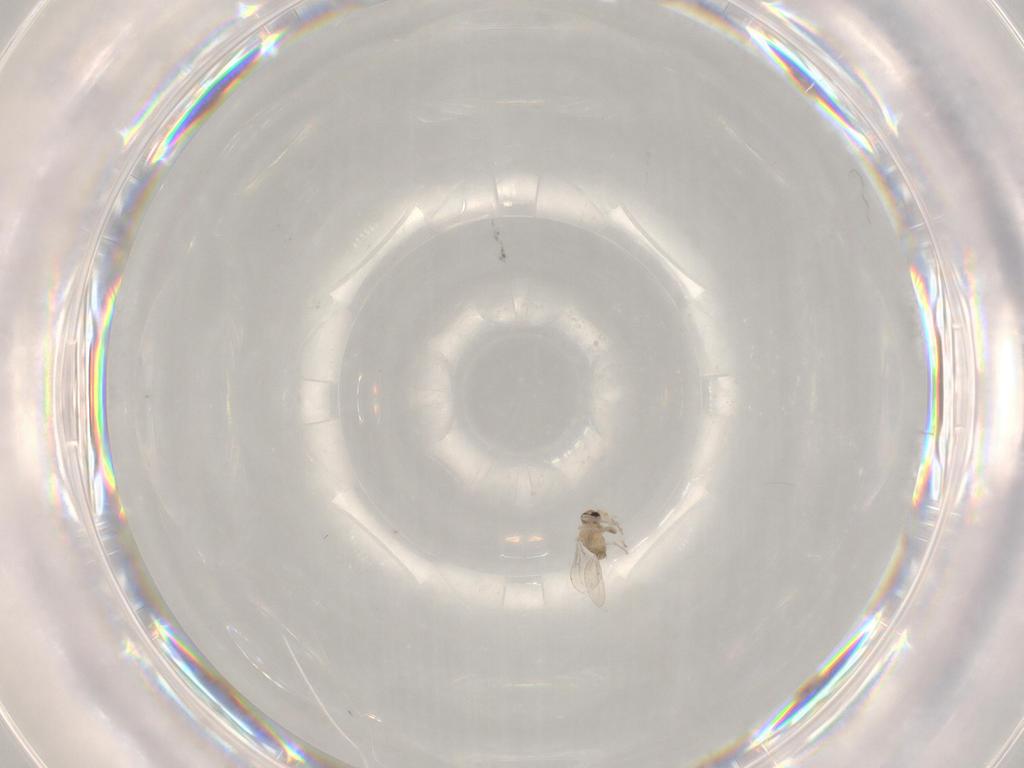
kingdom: Animalia
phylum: Arthropoda
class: Insecta
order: Diptera
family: Cecidomyiidae
